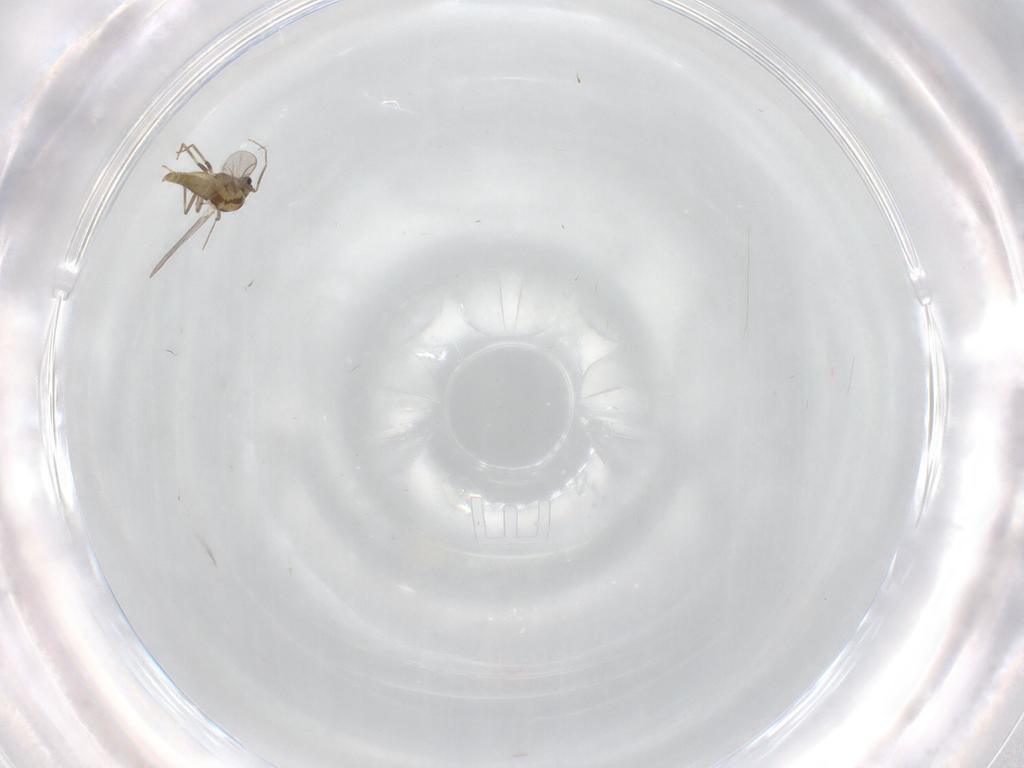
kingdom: Animalia
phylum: Arthropoda
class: Insecta
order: Diptera
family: Chironomidae
